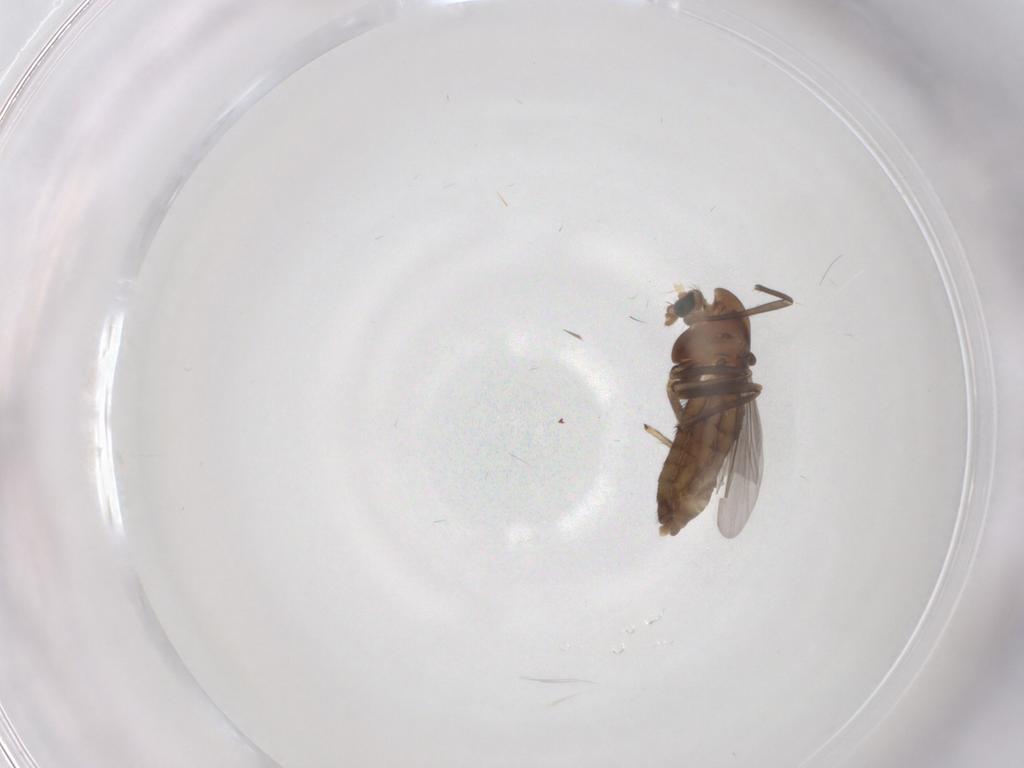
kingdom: Animalia
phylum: Arthropoda
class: Insecta
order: Diptera
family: Chironomidae
